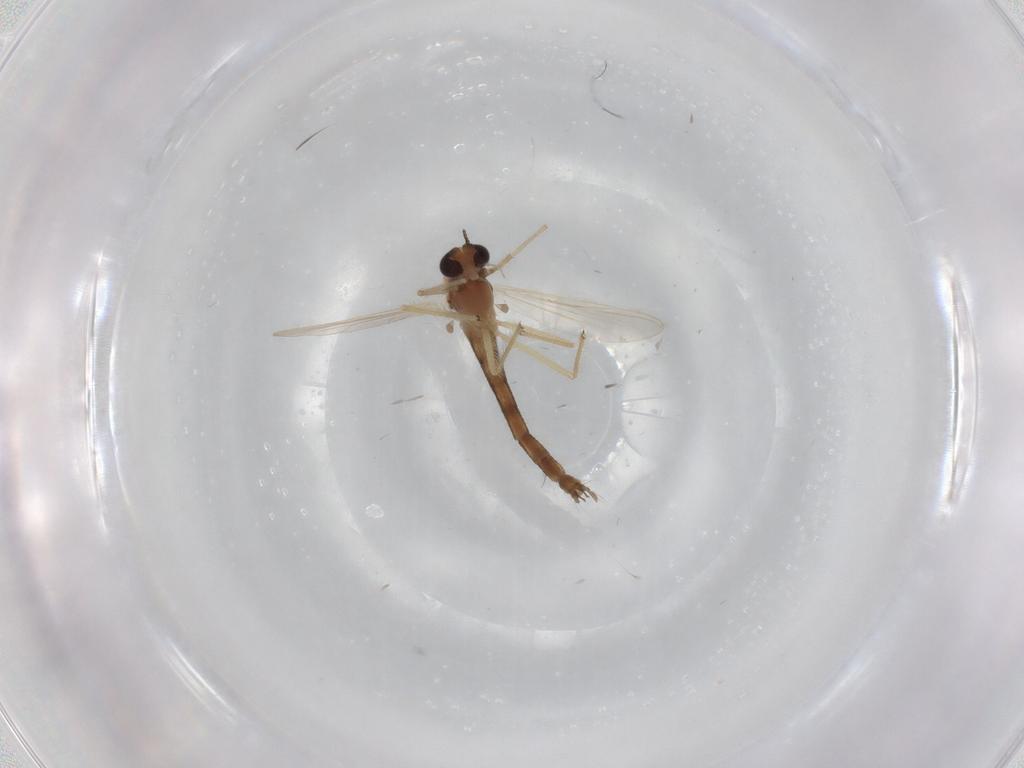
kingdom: Animalia
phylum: Arthropoda
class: Insecta
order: Diptera
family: Chironomidae
